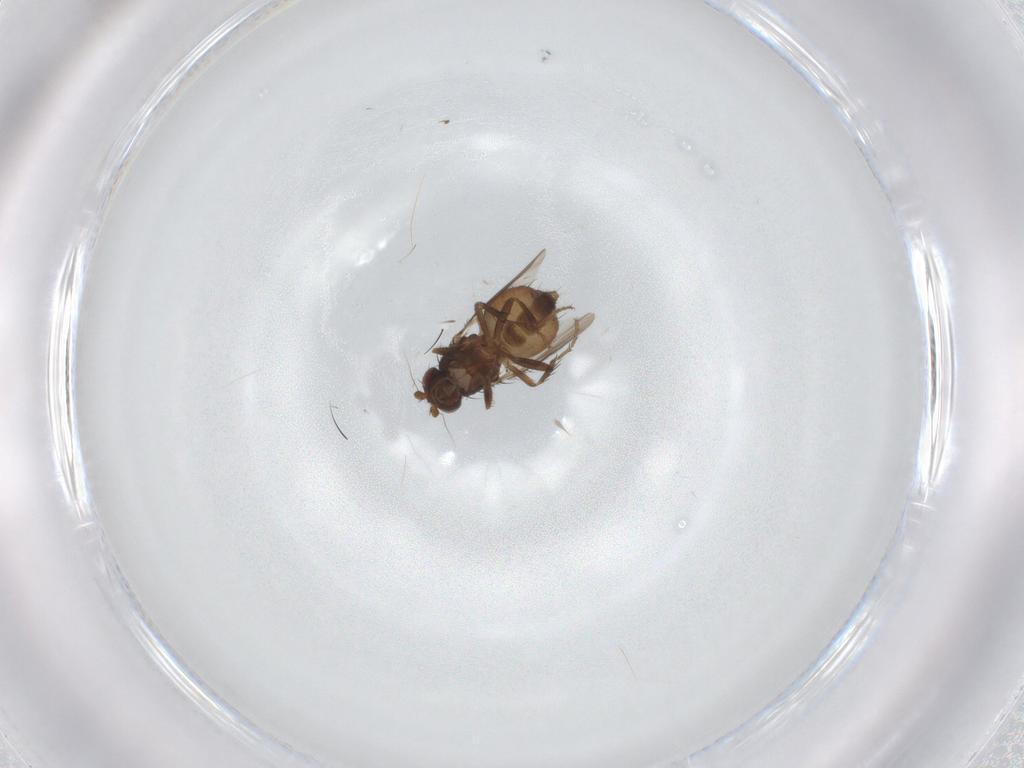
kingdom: Animalia
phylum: Arthropoda
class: Insecta
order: Diptera
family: Sphaeroceridae
